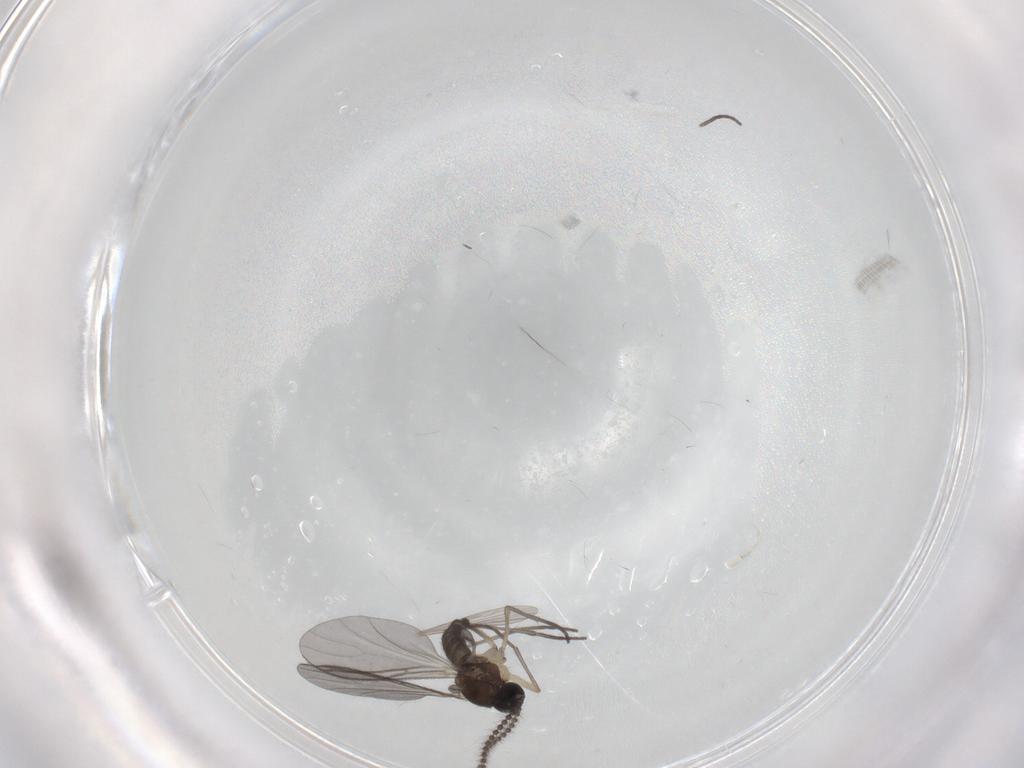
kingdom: Animalia
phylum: Arthropoda
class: Insecta
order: Diptera
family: Sciaridae
